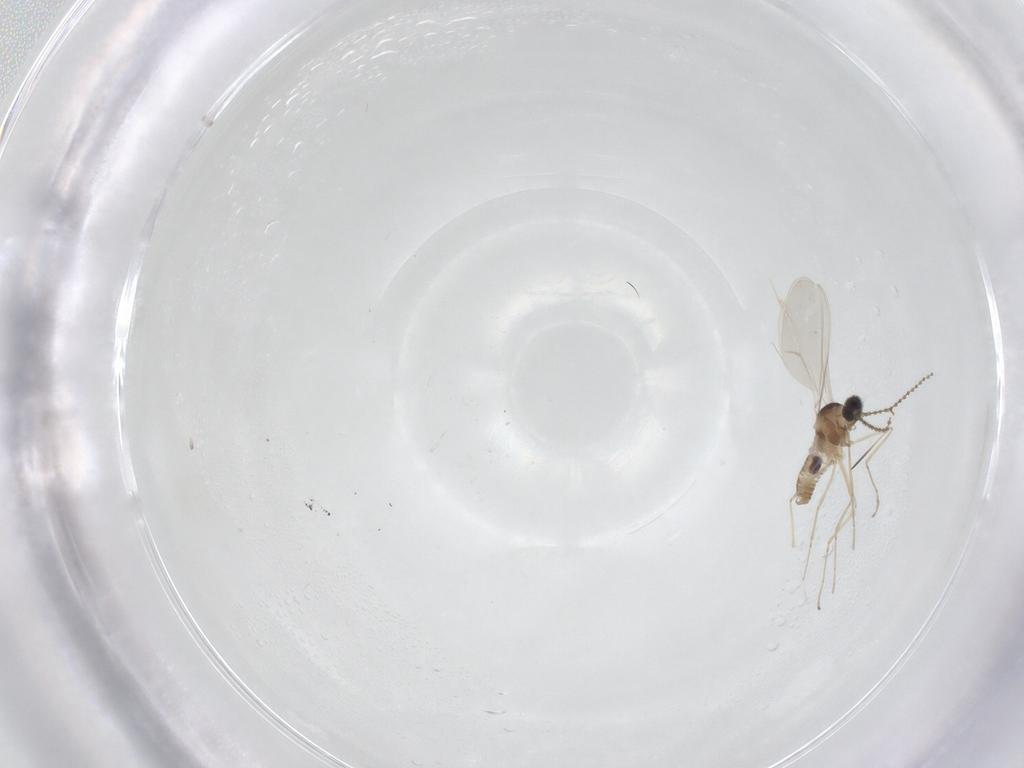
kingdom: Animalia
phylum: Arthropoda
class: Insecta
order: Diptera
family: Cecidomyiidae
